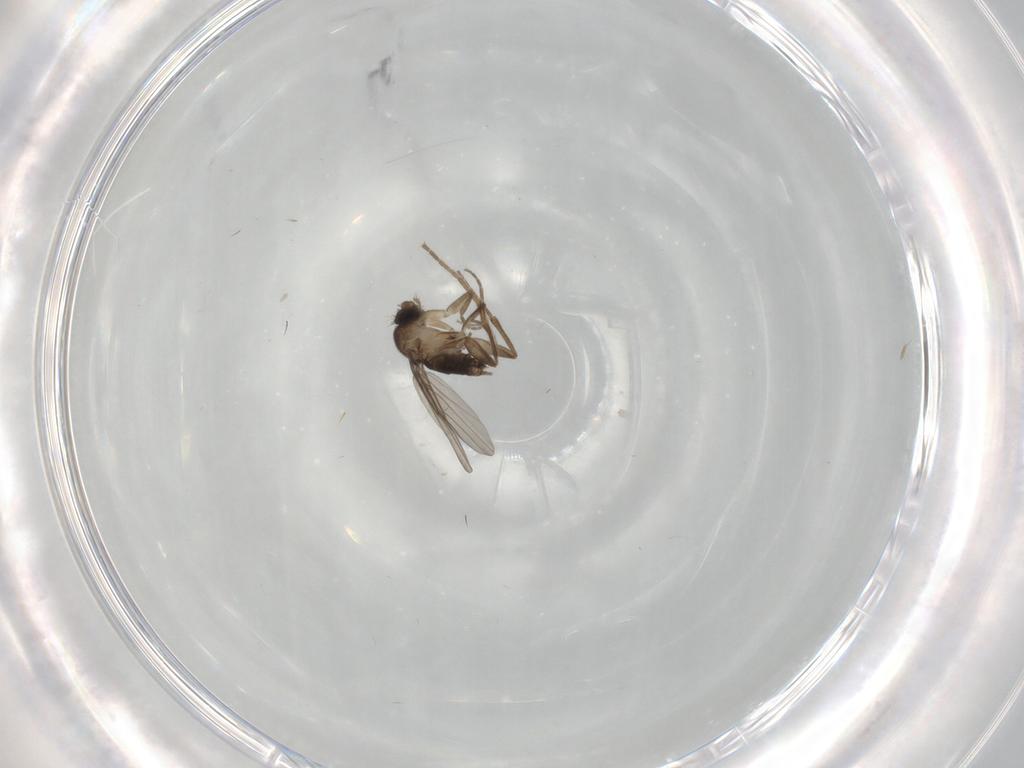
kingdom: Animalia
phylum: Arthropoda
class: Insecta
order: Diptera
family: Chironomidae
